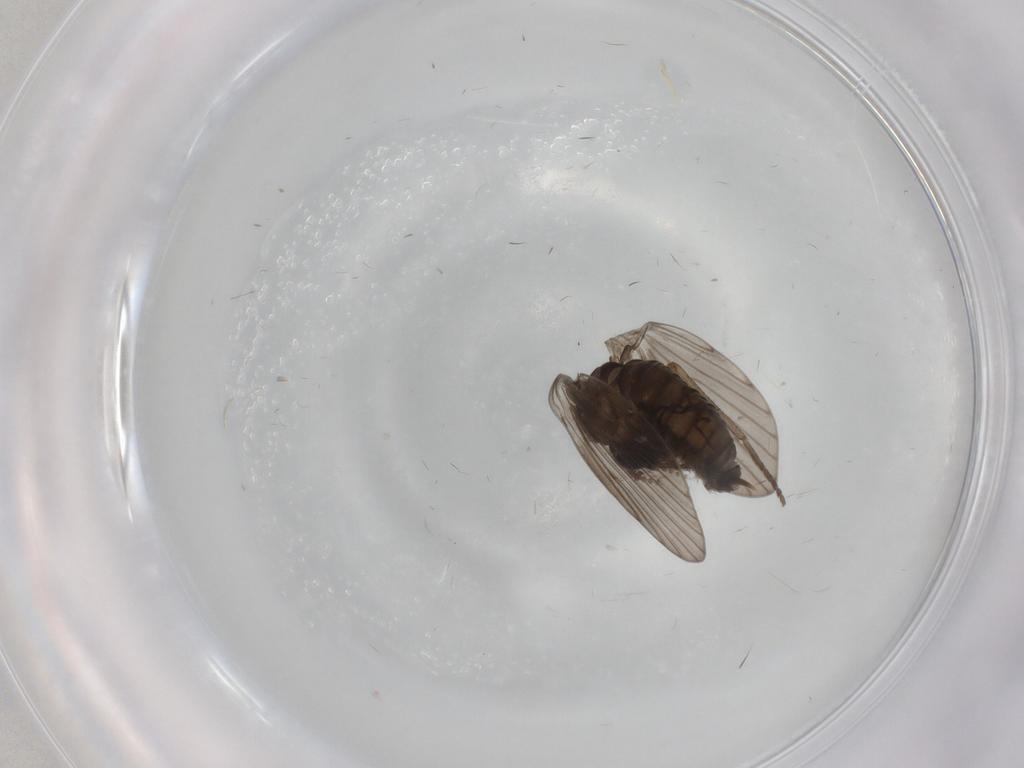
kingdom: Animalia
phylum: Arthropoda
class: Insecta
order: Diptera
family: Psychodidae
